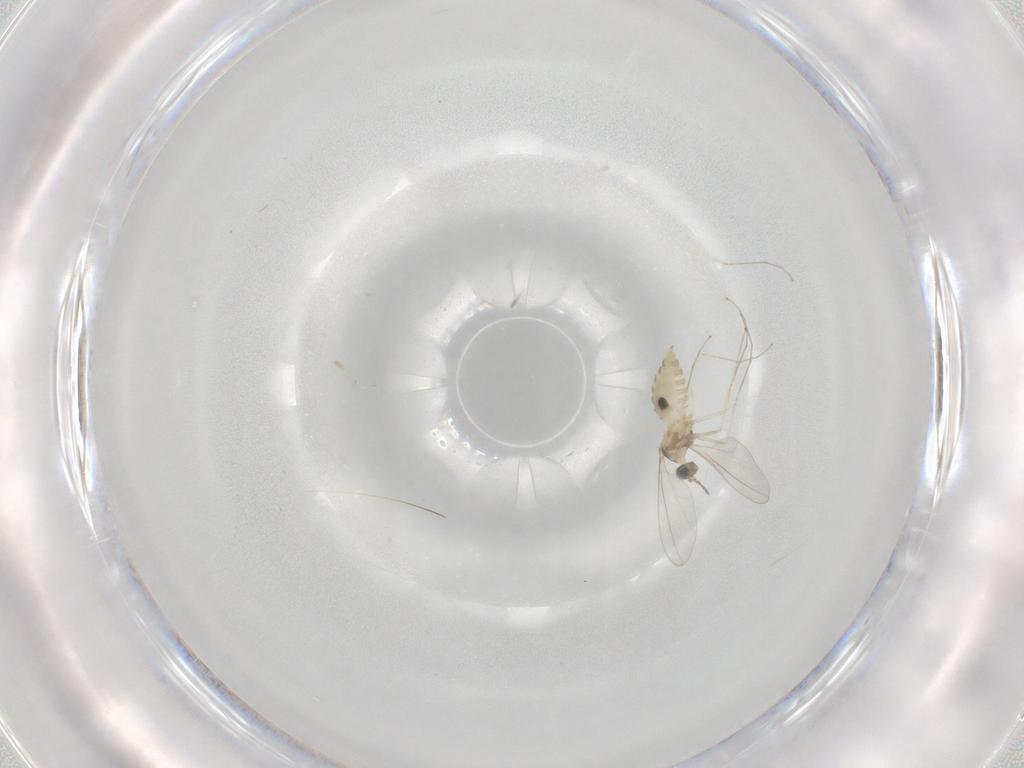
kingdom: Animalia
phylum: Arthropoda
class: Insecta
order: Diptera
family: Cecidomyiidae
